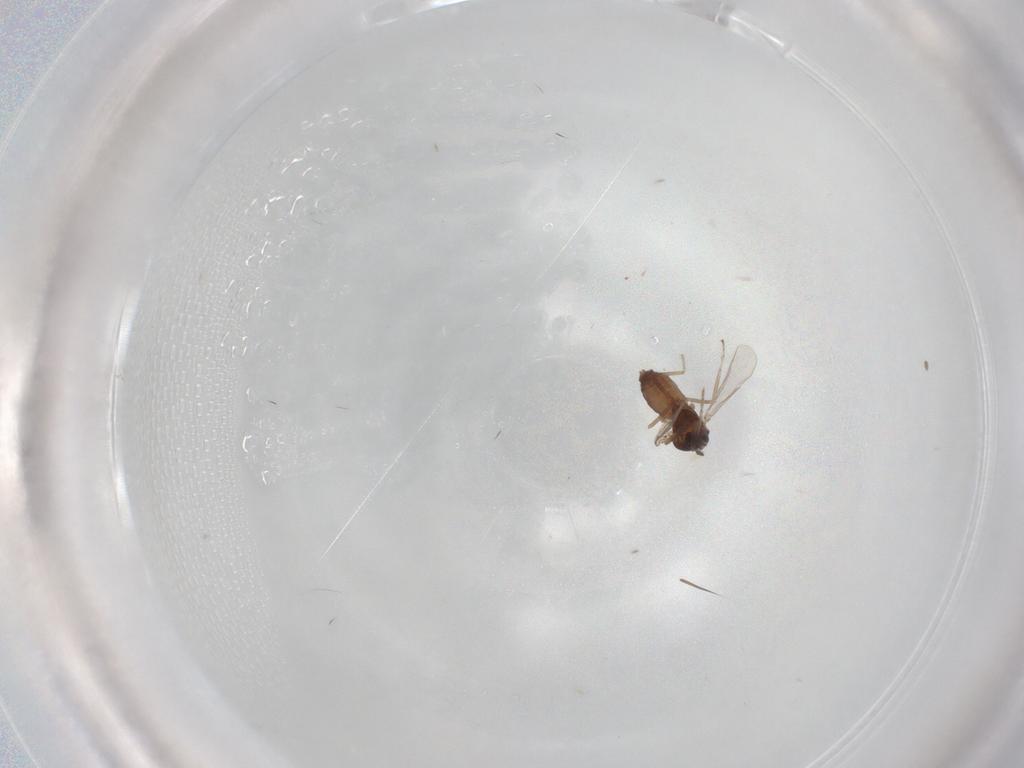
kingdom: Animalia
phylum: Arthropoda
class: Insecta
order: Diptera
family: Ceratopogonidae
